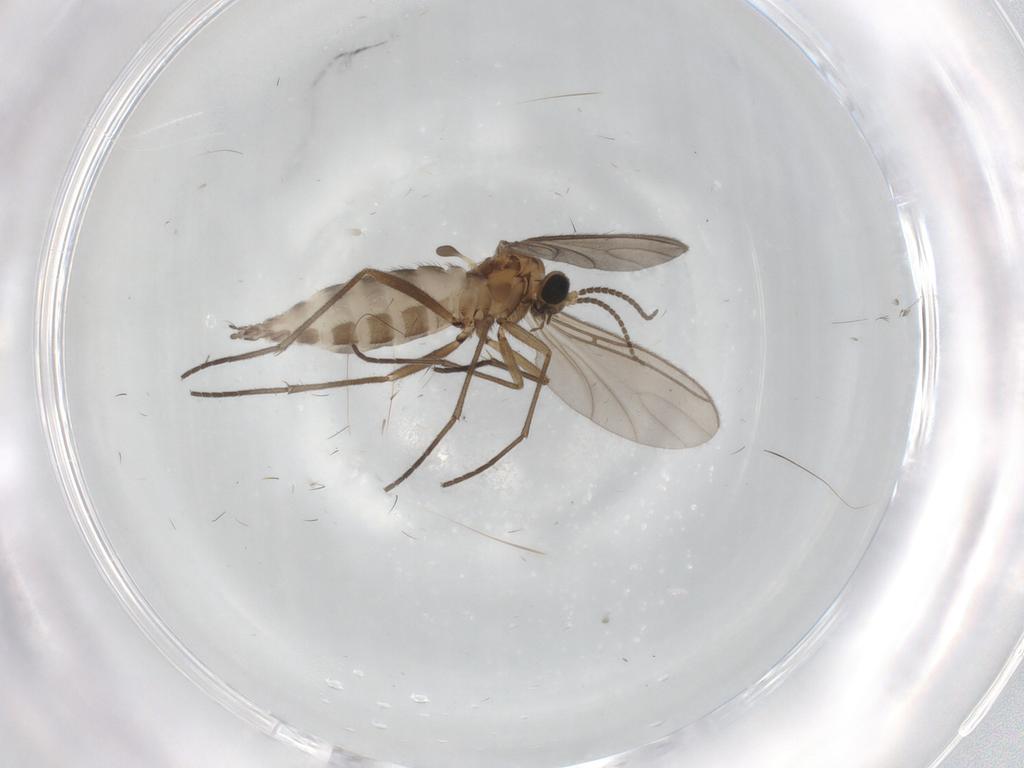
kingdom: Animalia
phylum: Arthropoda
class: Insecta
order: Diptera
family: Sciaridae
